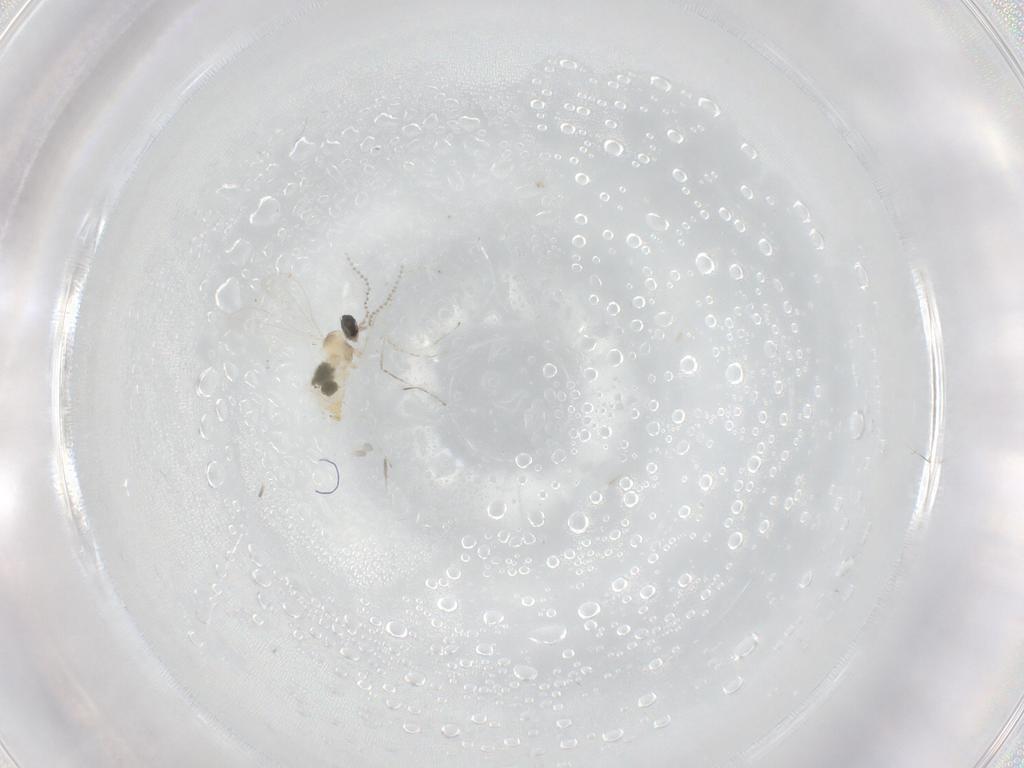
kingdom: Animalia
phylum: Arthropoda
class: Insecta
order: Diptera
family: Cecidomyiidae
